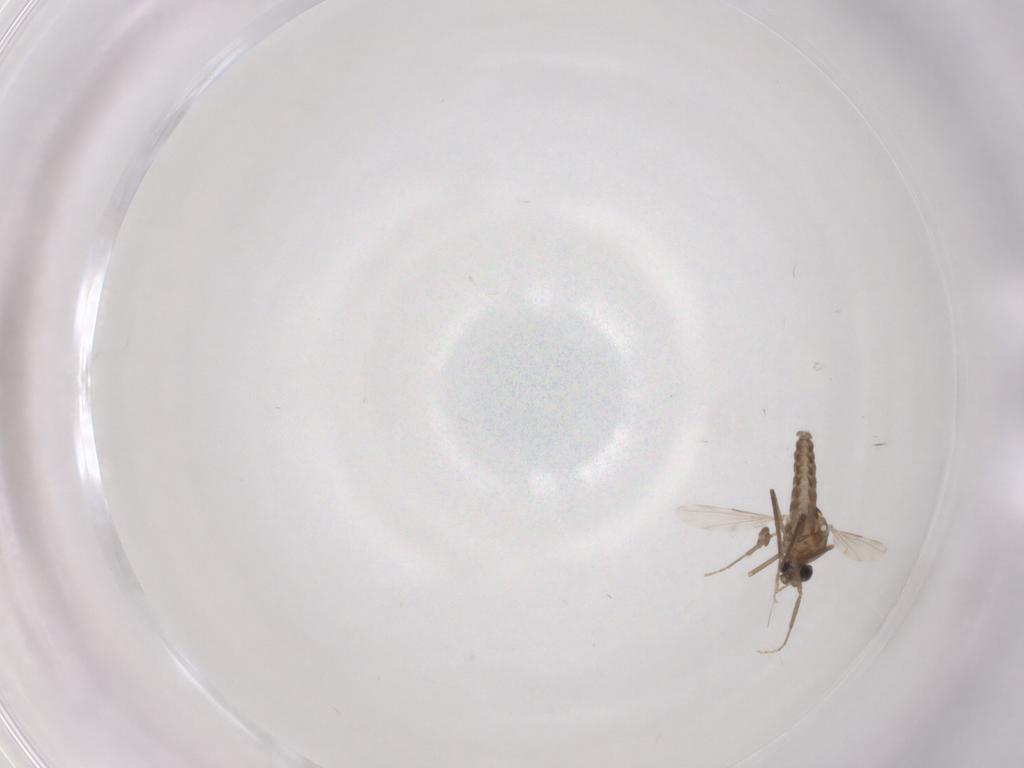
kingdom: Animalia
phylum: Arthropoda
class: Insecta
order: Diptera
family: Ceratopogonidae
